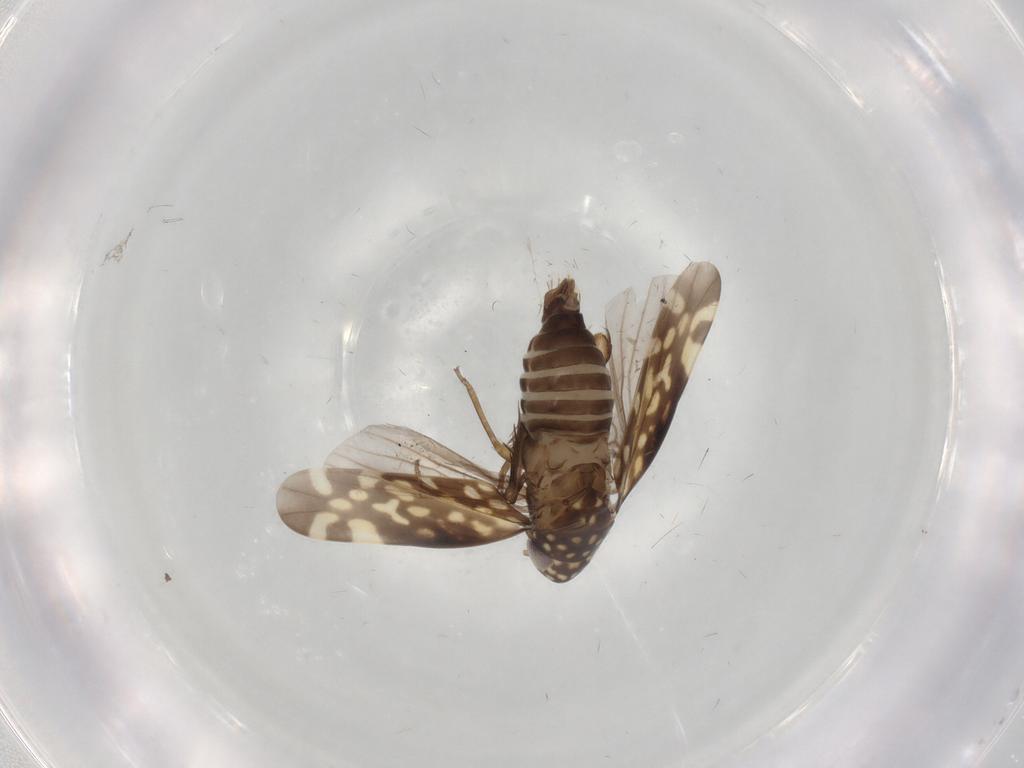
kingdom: Animalia
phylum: Arthropoda
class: Insecta
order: Hemiptera
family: Cicadellidae
